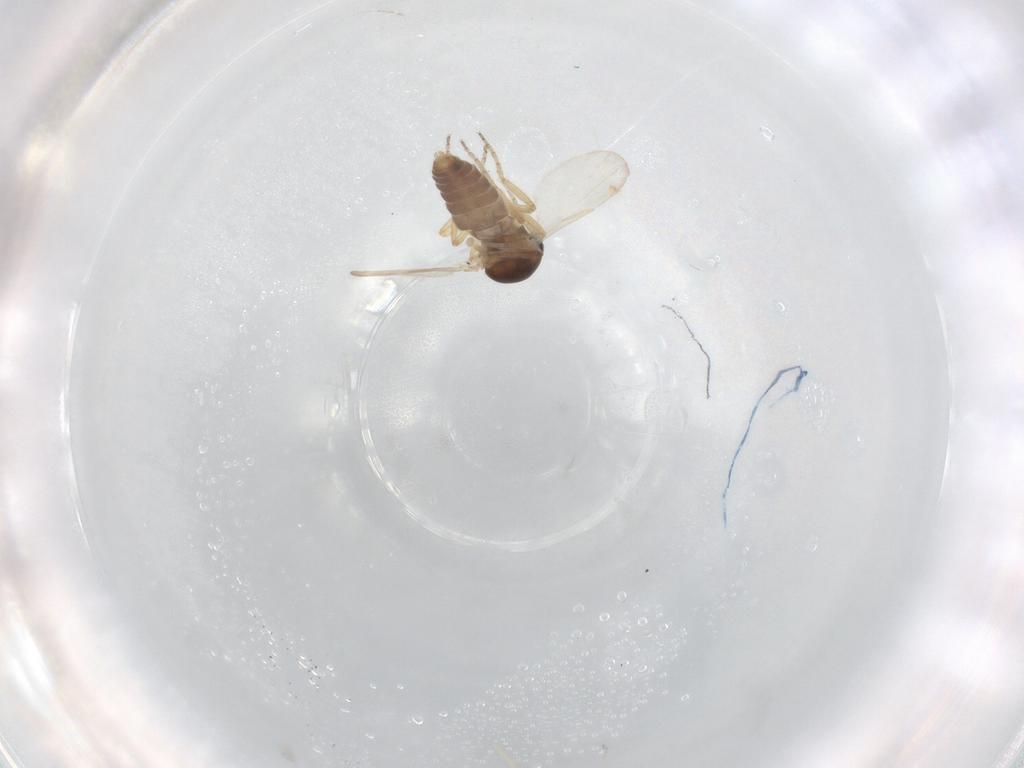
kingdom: Animalia
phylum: Arthropoda
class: Insecta
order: Diptera
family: Ceratopogonidae
